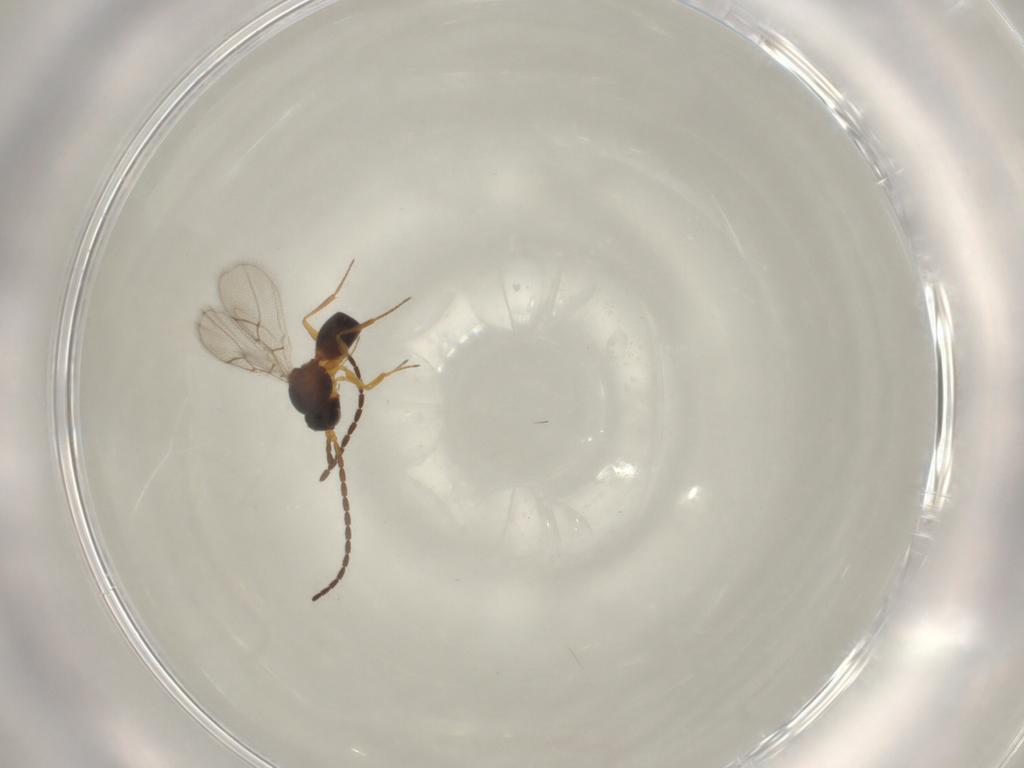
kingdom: Animalia
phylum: Arthropoda
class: Insecta
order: Hymenoptera
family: Figitidae
